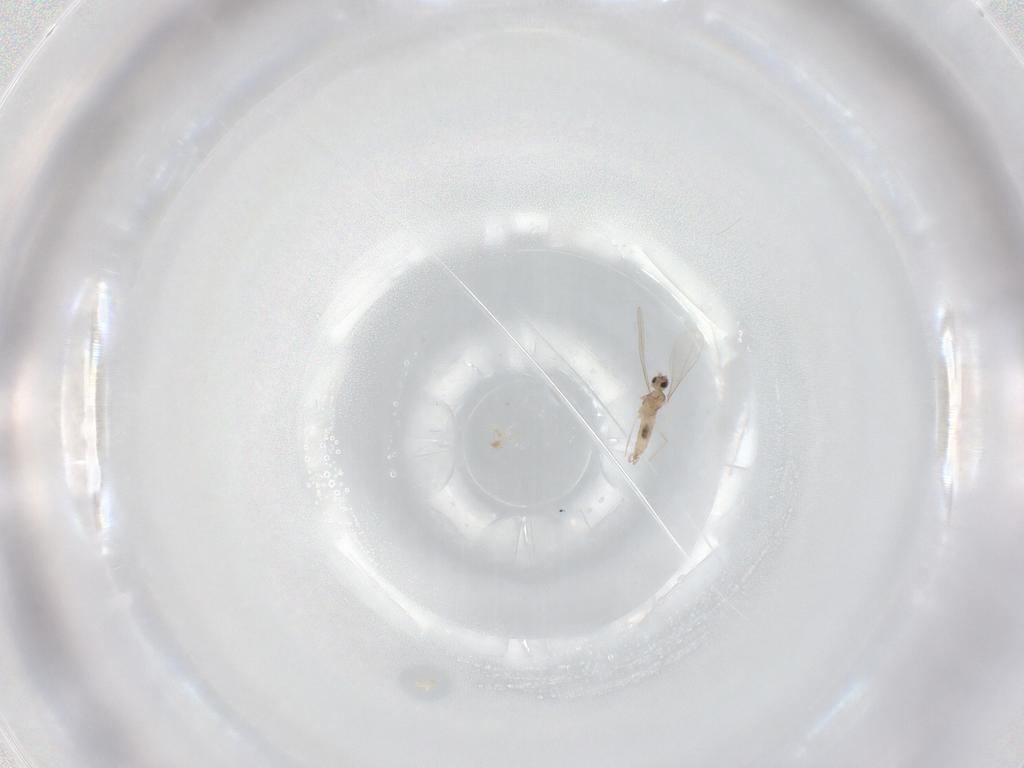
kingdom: Animalia
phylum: Arthropoda
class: Insecta
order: Diptera
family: Chloropidae
